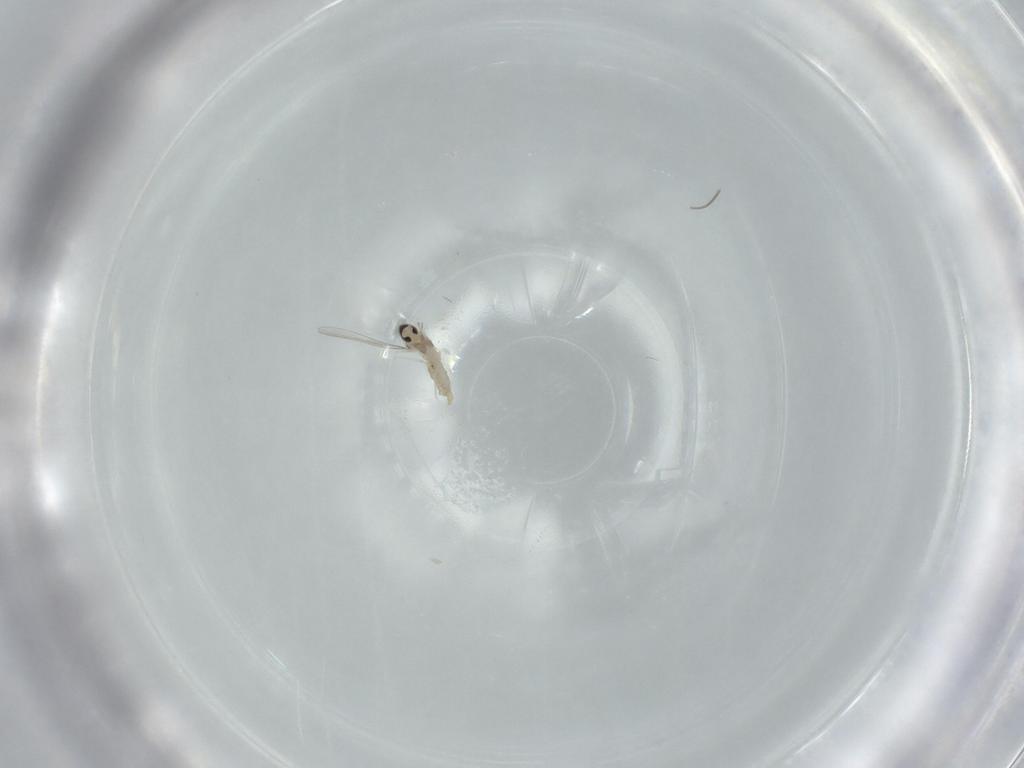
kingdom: Animalia
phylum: Arthropoda
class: Insecta
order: Diptera
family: Cecidomyiidae
